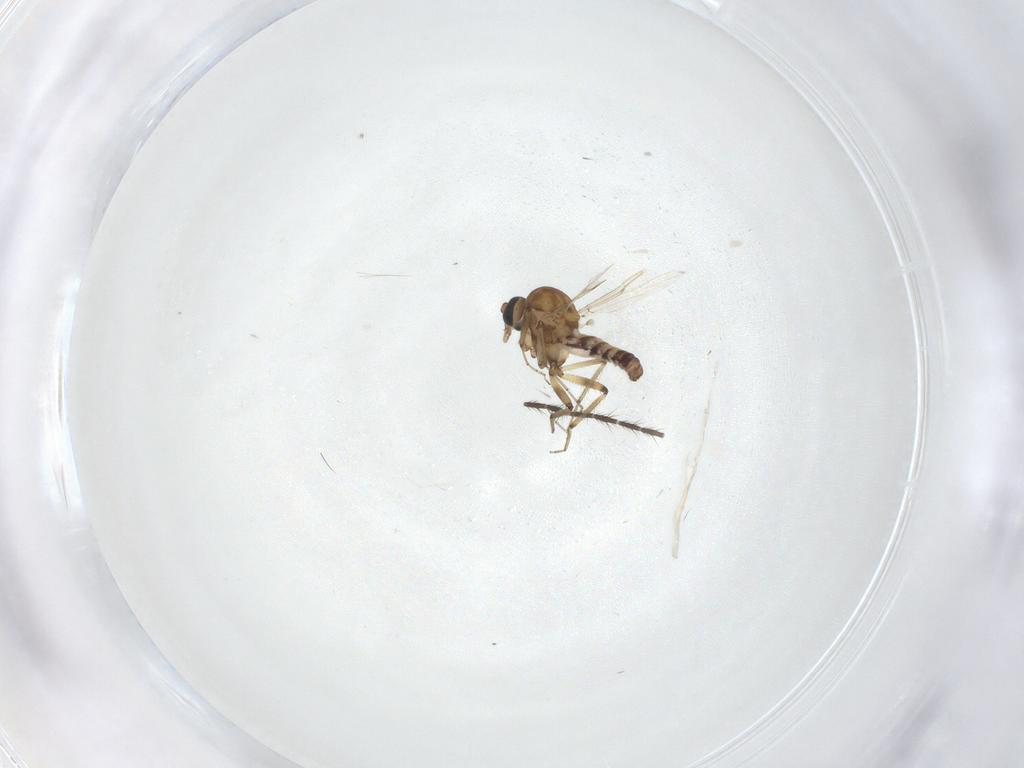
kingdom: Animalia
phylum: Arthropoda
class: Insecta
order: Diptera
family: Ceratopogonidae
